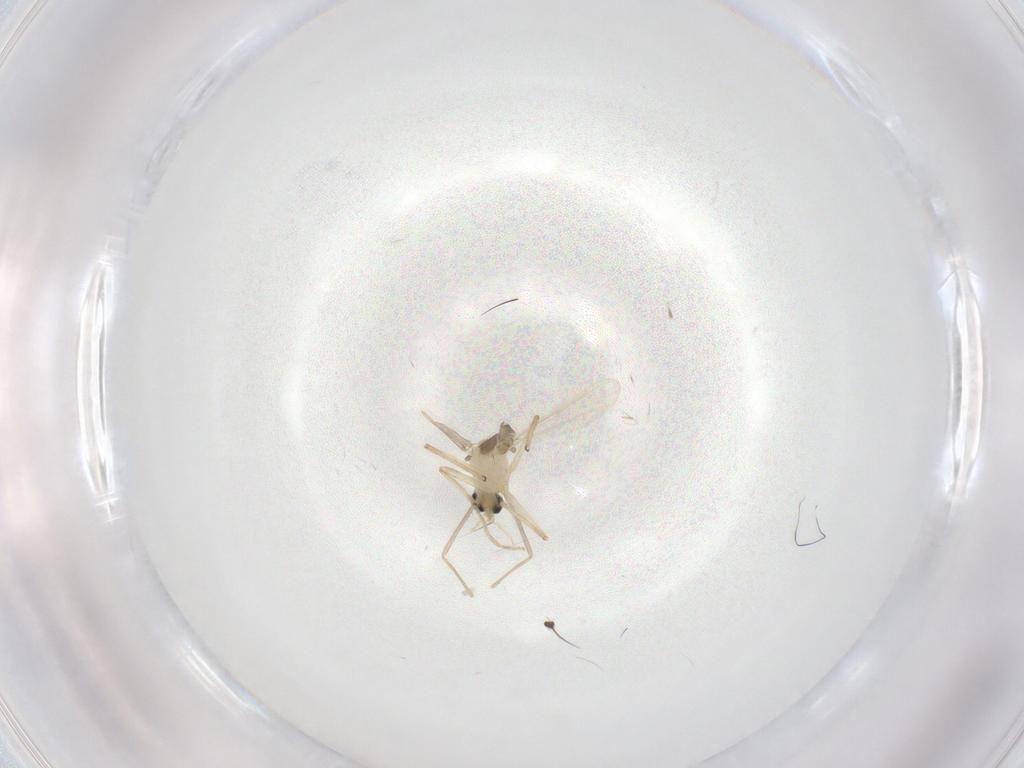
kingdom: Animalia
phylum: Arthropoda
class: Insecta
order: Diptera
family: Chironomidae
